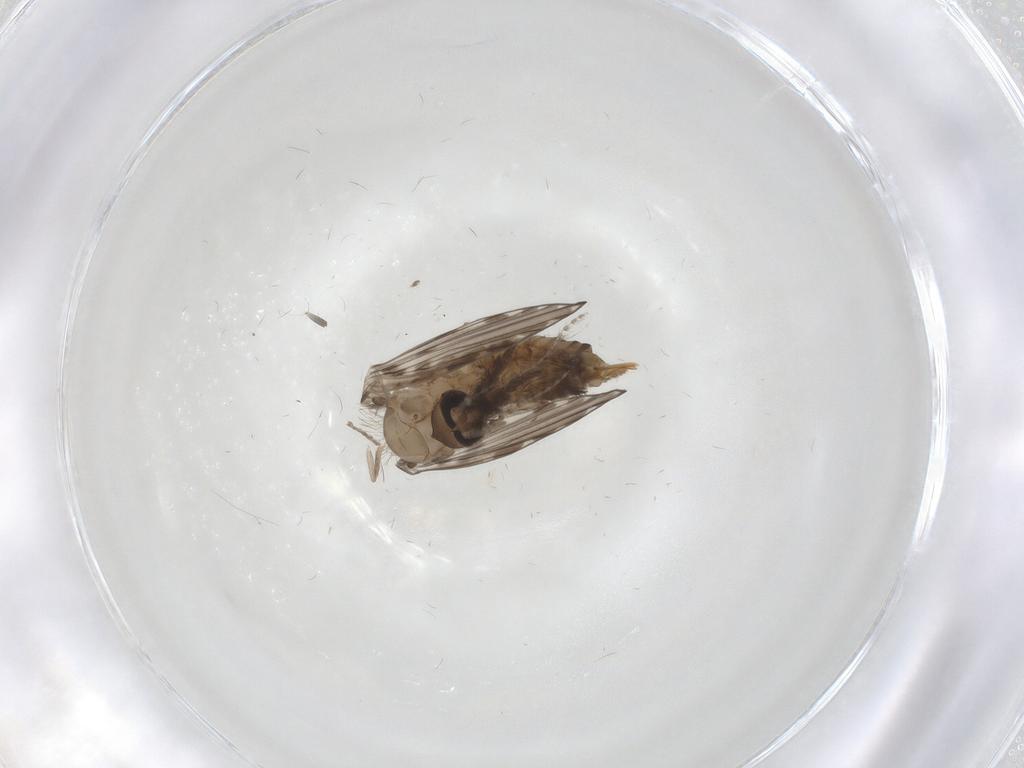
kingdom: Animalia
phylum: Arthropoda
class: Insecta
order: Diptera
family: Psychodidae
